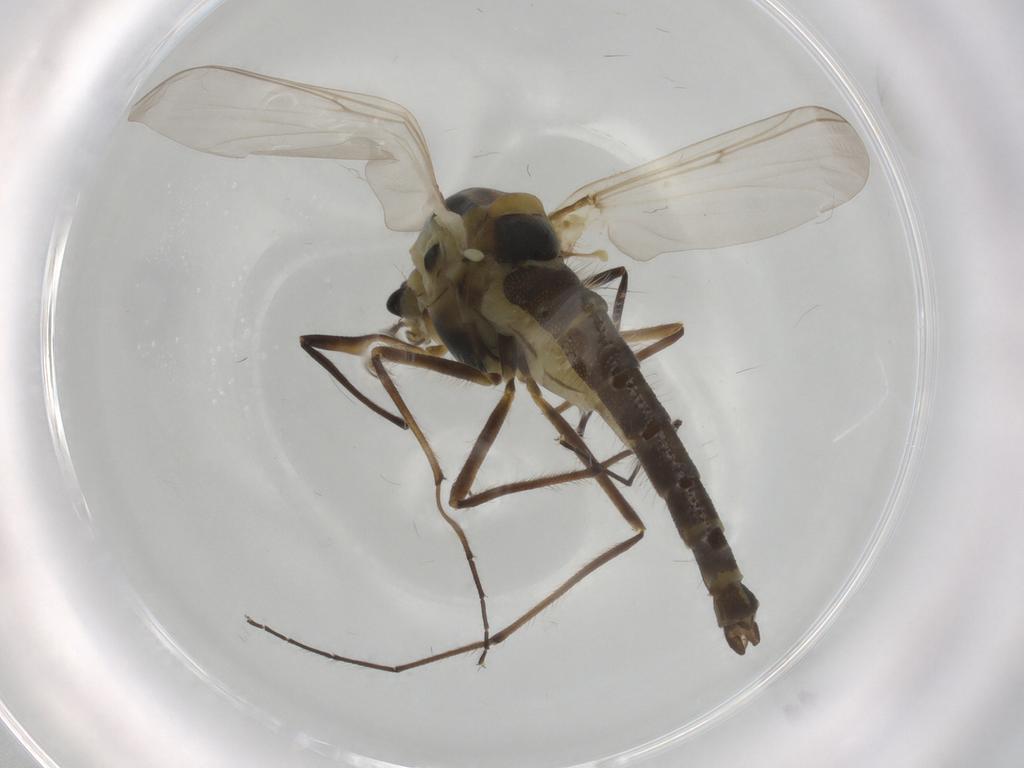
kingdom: Animalia
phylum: Arthropoda
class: Insecta
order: Diptera
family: Chironomidae
